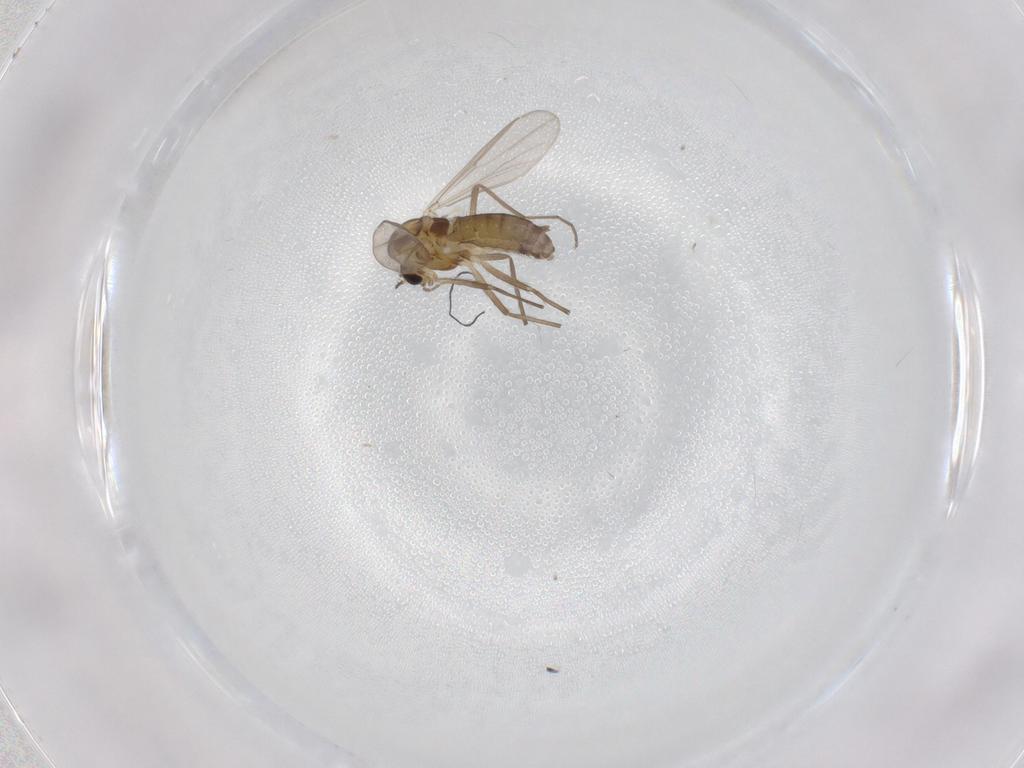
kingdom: Animalia
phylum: Arthropoda
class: Insecta
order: Diptera
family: Chironomidae
